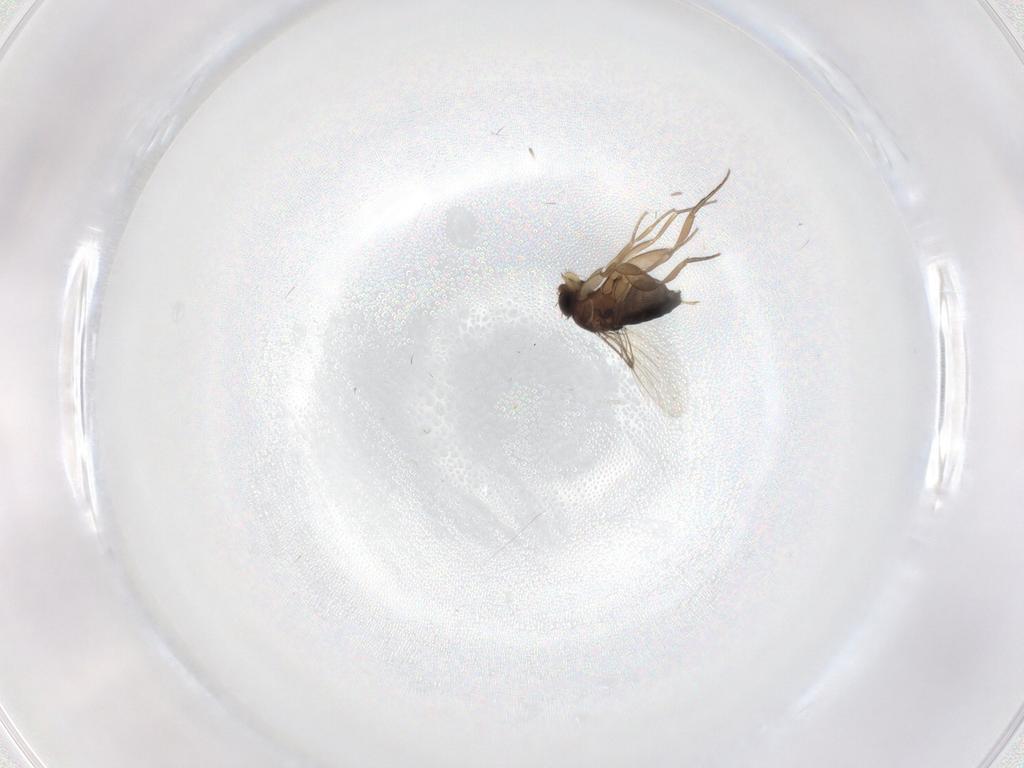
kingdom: Animalia
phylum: Arthropoda
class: Insecta
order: Diptera
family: Phoridae
